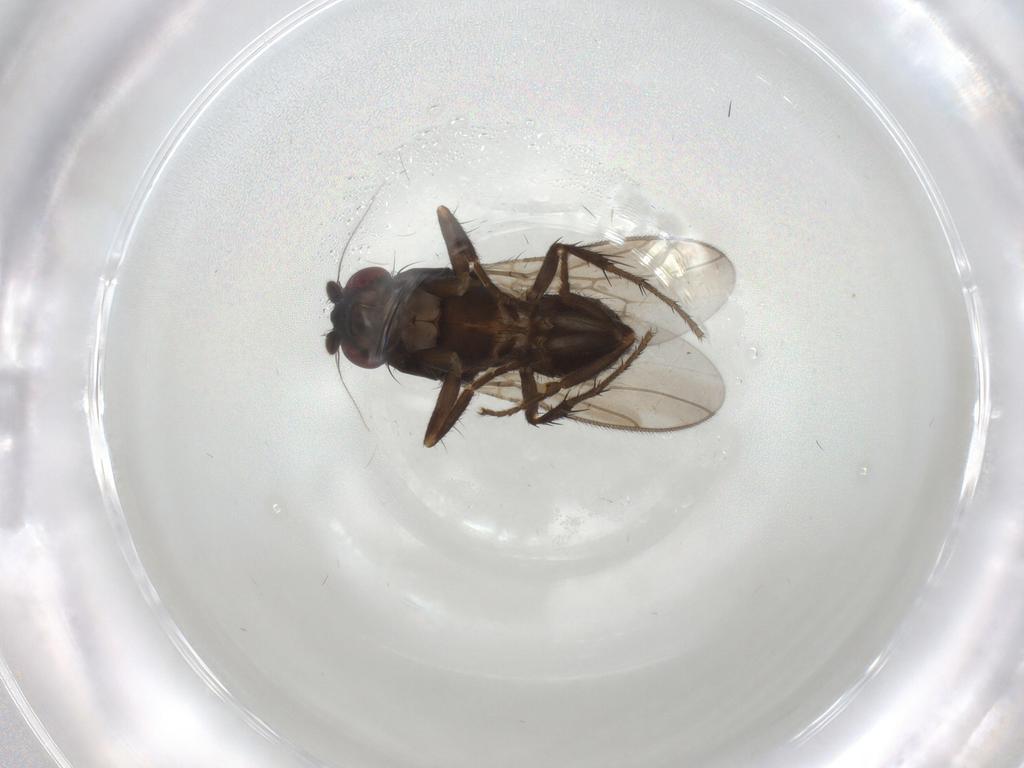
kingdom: Animalia
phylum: Arthropoda
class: Insecta
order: Diptera
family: Sphaeroceridae
